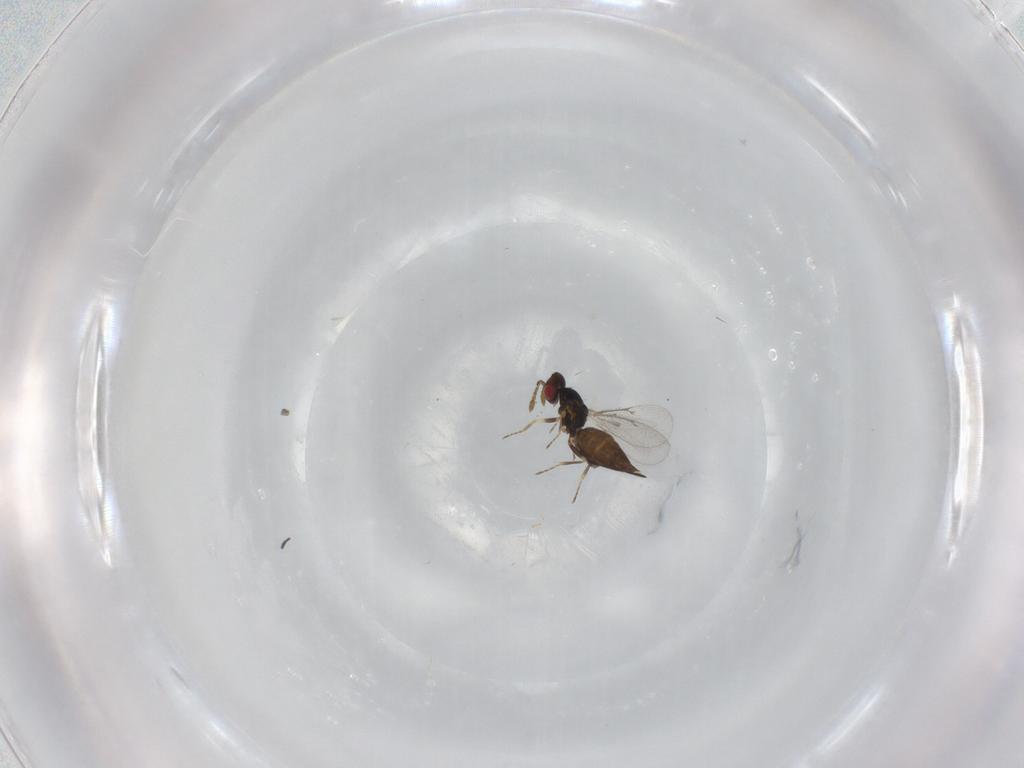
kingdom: Animalia
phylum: Arthropoda
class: Insecta
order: Hymenoptera
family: Eulophidae
